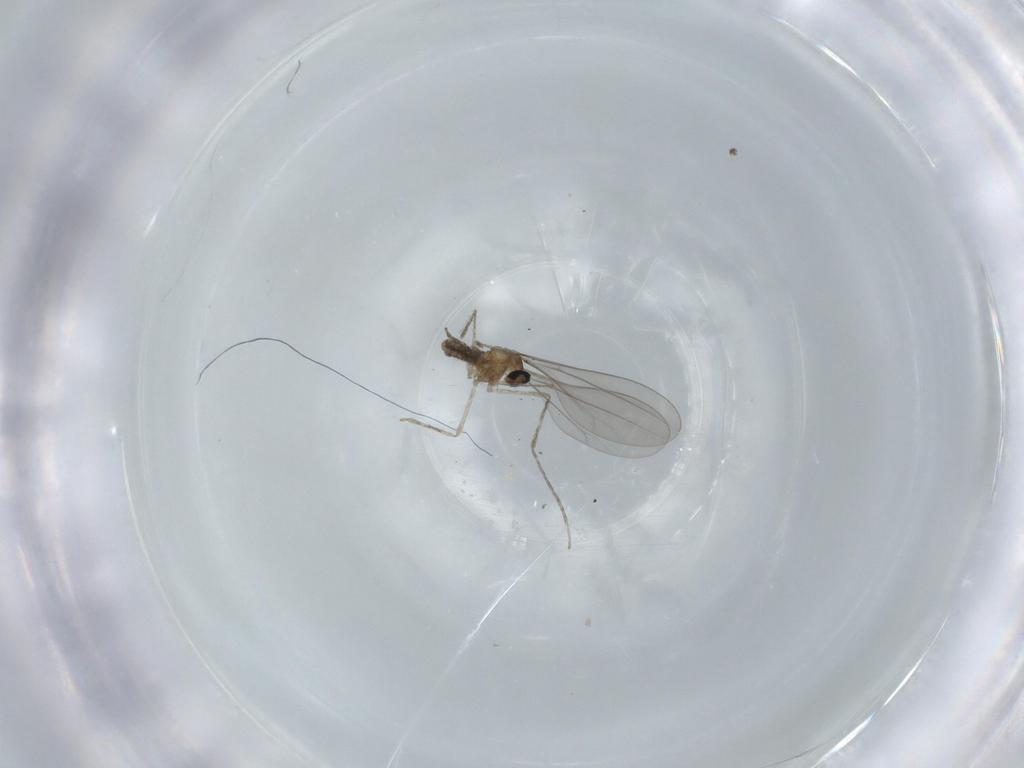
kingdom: Animalia
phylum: Arthropoda
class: Insecta
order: Diptera
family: Cecidomyiidae
